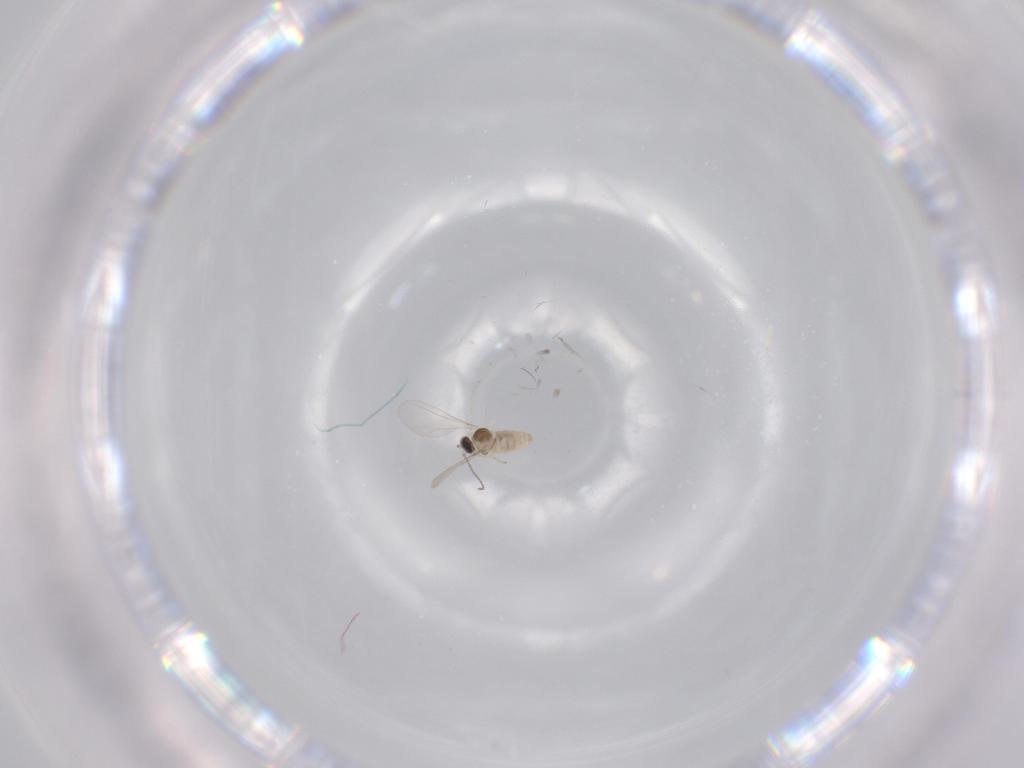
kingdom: Animalia
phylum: Arthropoda
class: Insecta
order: Diptera
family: Cecidomyiidae
